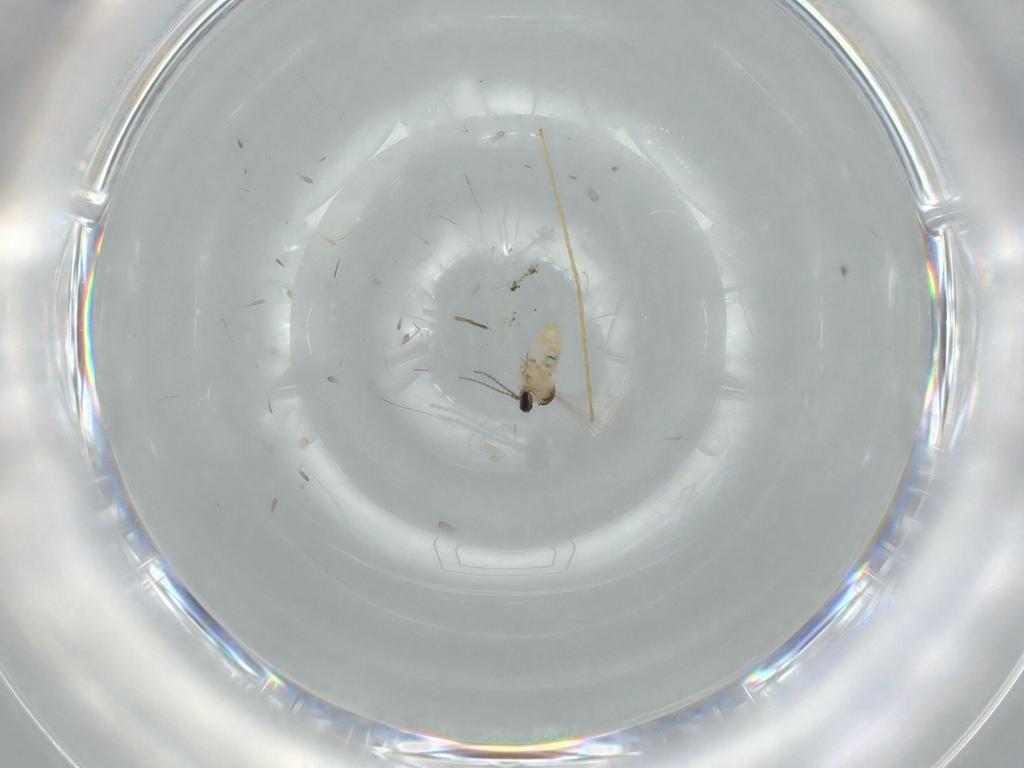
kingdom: Animalia
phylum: Arthropoda
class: Insecta
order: Diptera
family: Cecidomyiidae
